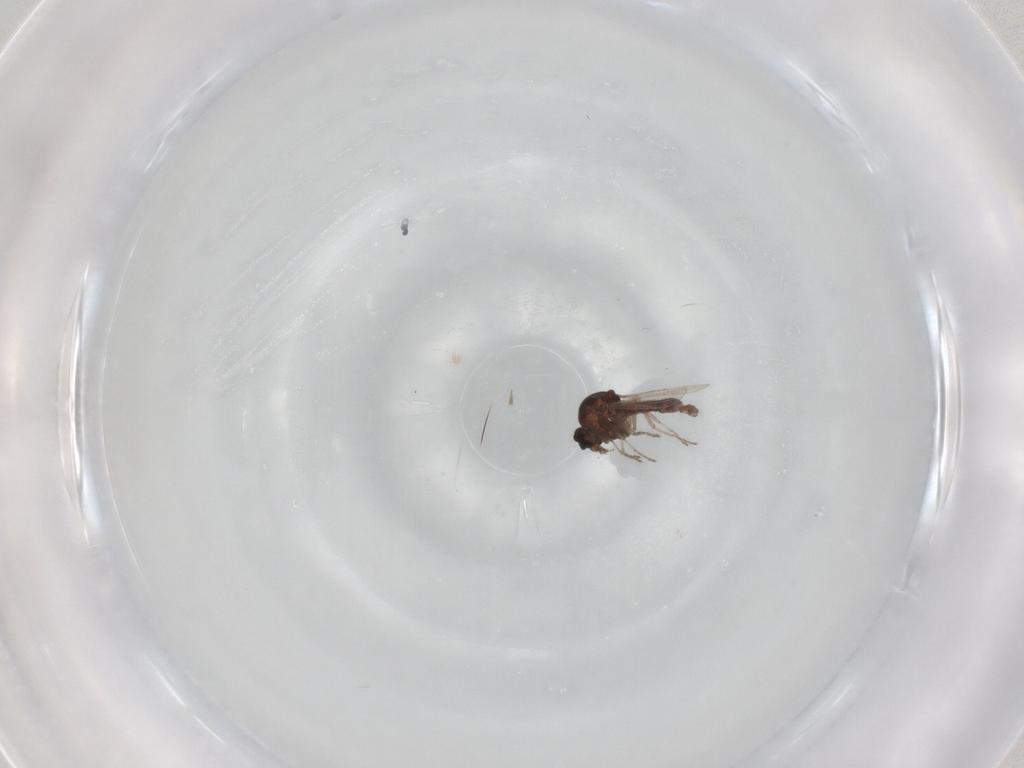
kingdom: Animalia
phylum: Arthropoda
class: Insecta
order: Diptera
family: Ceratopogonidae
